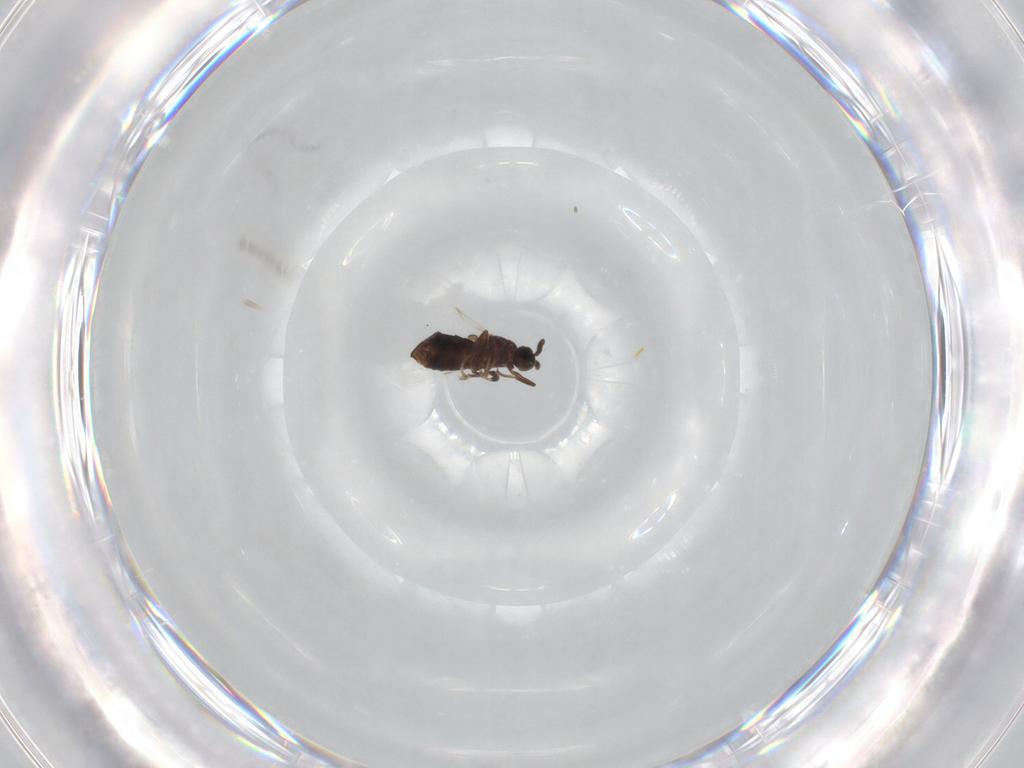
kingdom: Animalia
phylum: Arthropoda
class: Insecta
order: Diptera
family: Scatopsidae
